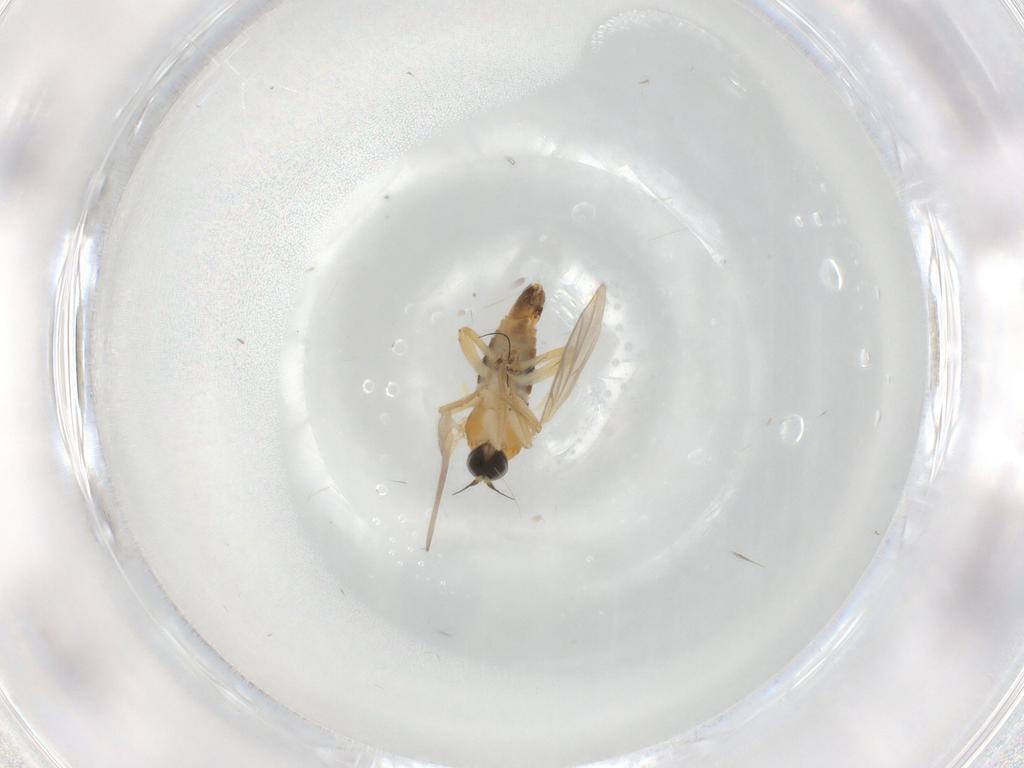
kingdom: Animalia
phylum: Arthropoda
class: Insecta
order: Diptera
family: Hybotidae
